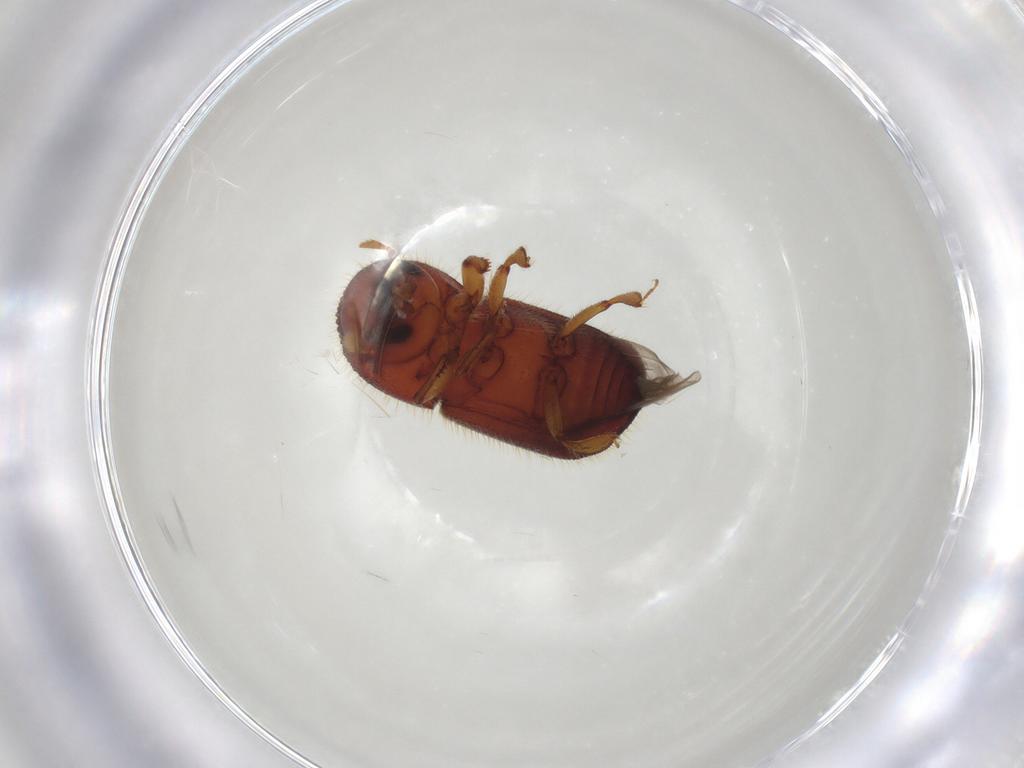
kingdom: Animalia
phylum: Arthropoda
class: Insecta
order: Coleoptera
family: Curculionidae
